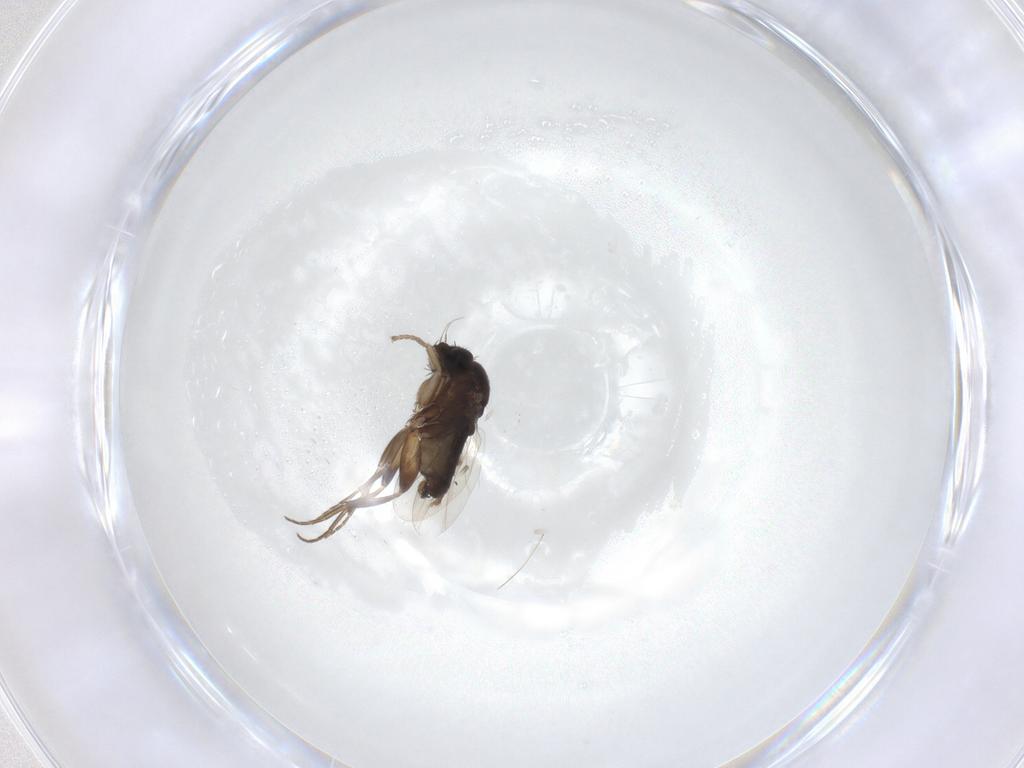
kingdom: Animalia
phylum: Arthropoda
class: Insecta
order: Diptera
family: Phoridae
